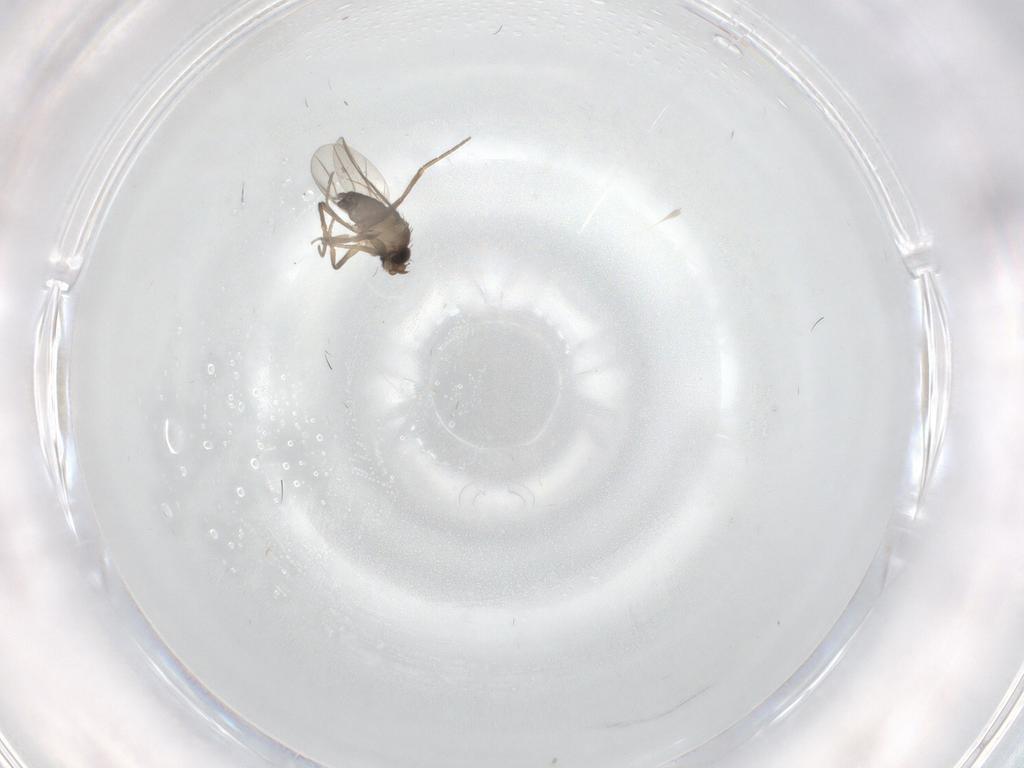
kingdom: Animalia
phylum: Arthropoda
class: Insecta
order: Diptera
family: Phoridae
